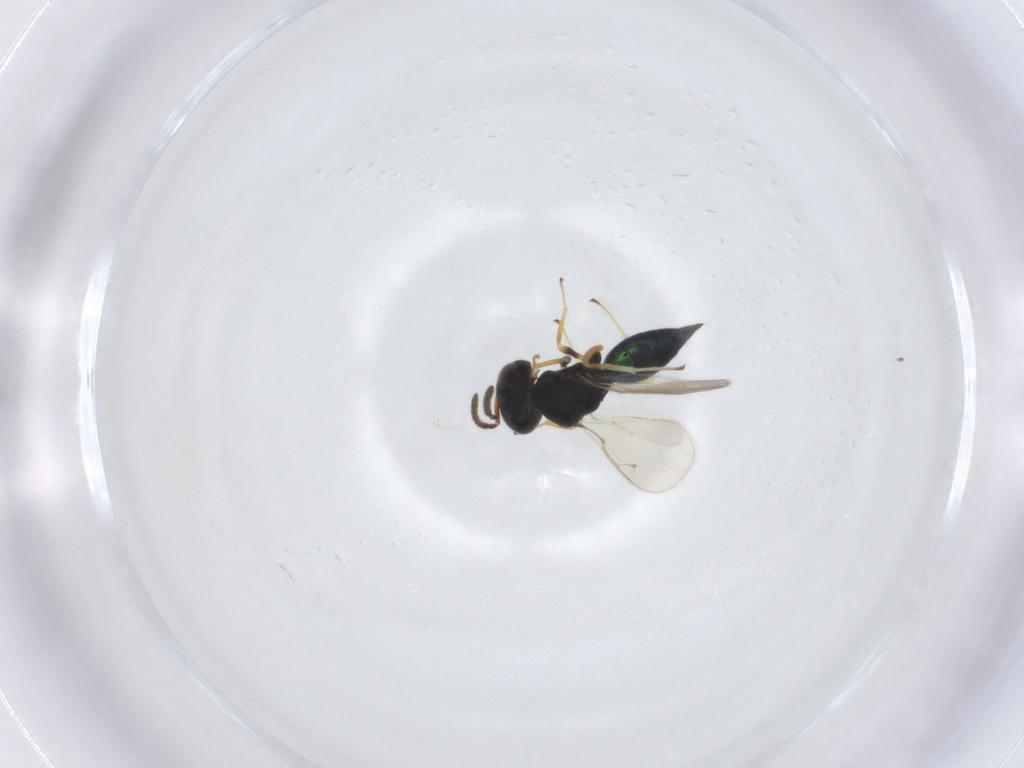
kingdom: Animalia
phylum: Arthropoda
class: Insecta
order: Hymenoptera
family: Pteromalidae
